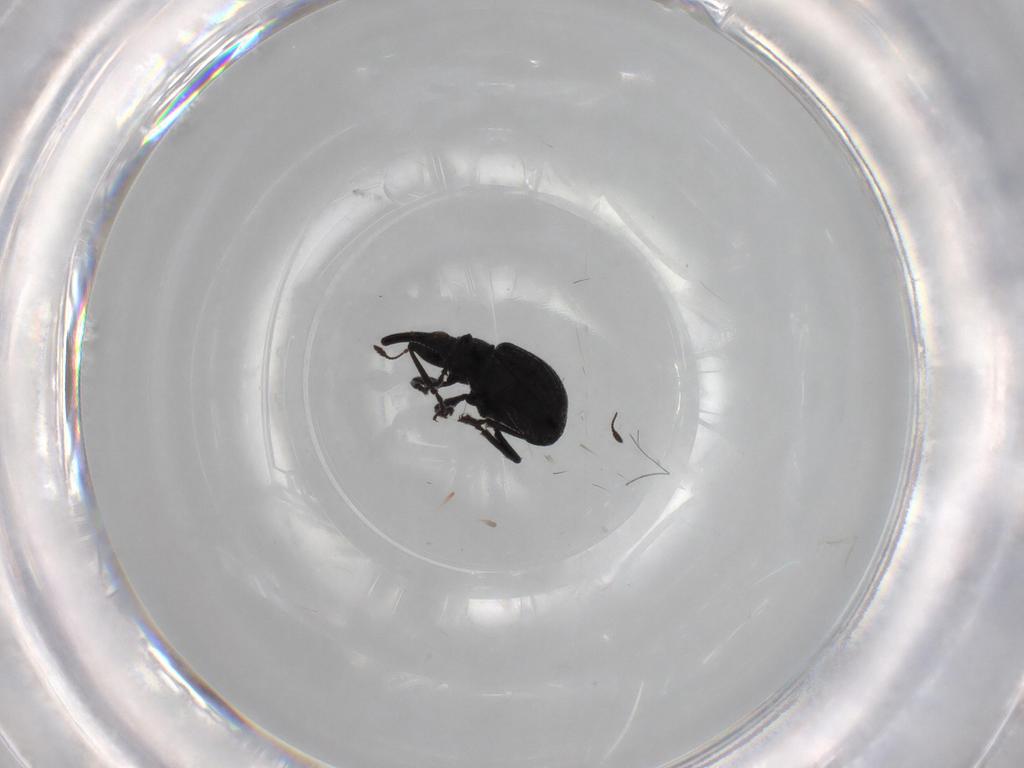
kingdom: Animalia
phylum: Arthropoda
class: Insecta
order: Coleoptera
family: Brentidae
